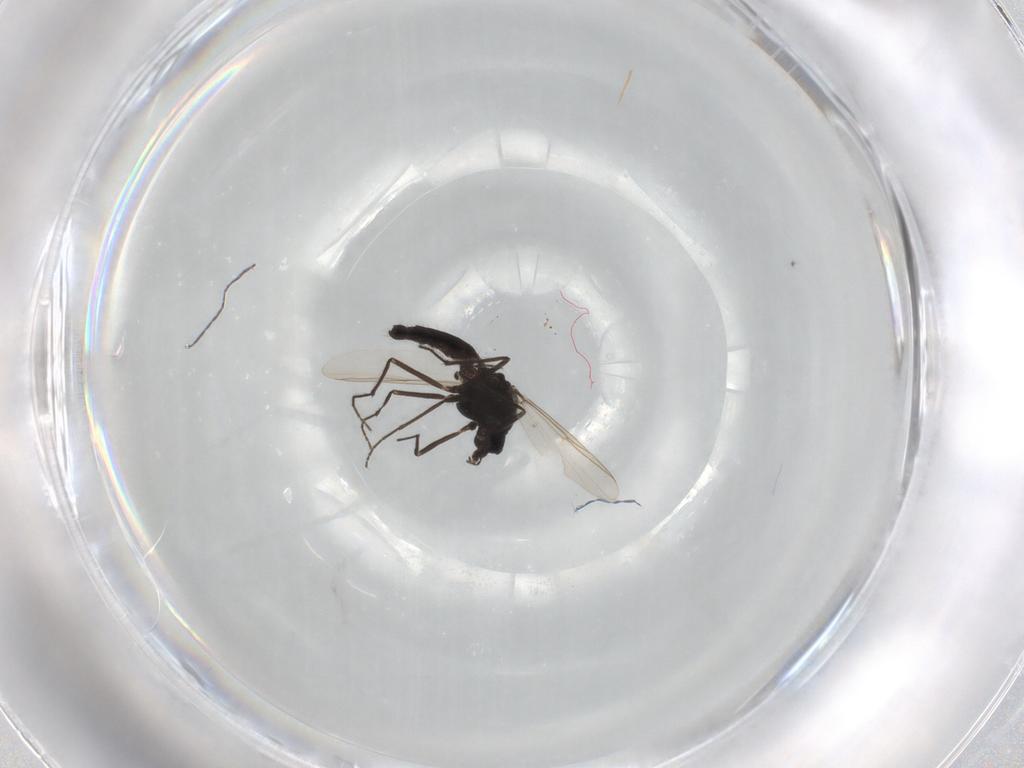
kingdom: Animalia
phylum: Arthropoda
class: Insecta
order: Diptera
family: Chironomidae
